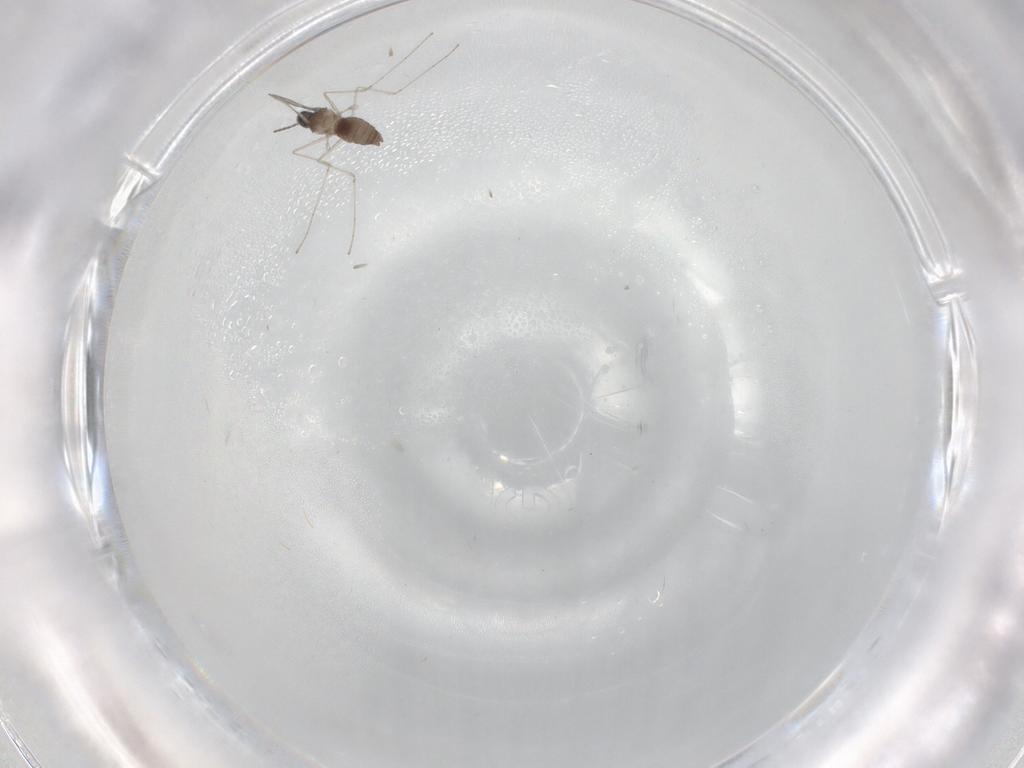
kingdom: Animalia
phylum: Arthropoda
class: Insecta
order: Diptera
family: Cecidomyiidae
